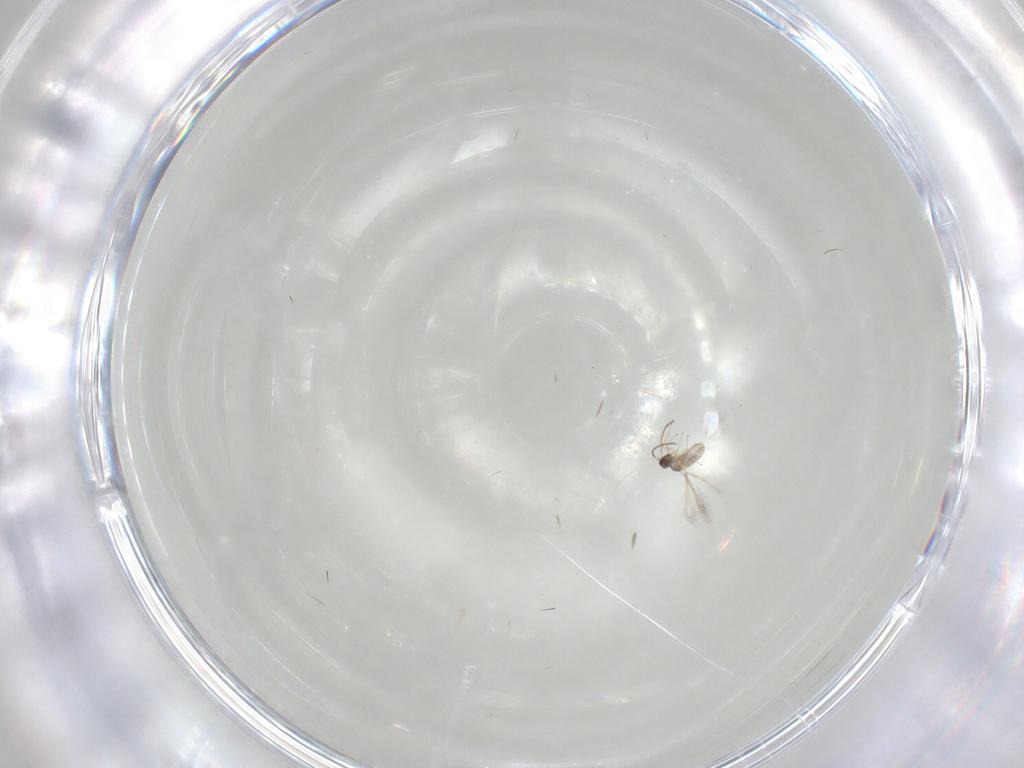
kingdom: Animalia
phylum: Arthropoda
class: Insecta
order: Hymenoptera
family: Mymaridae
